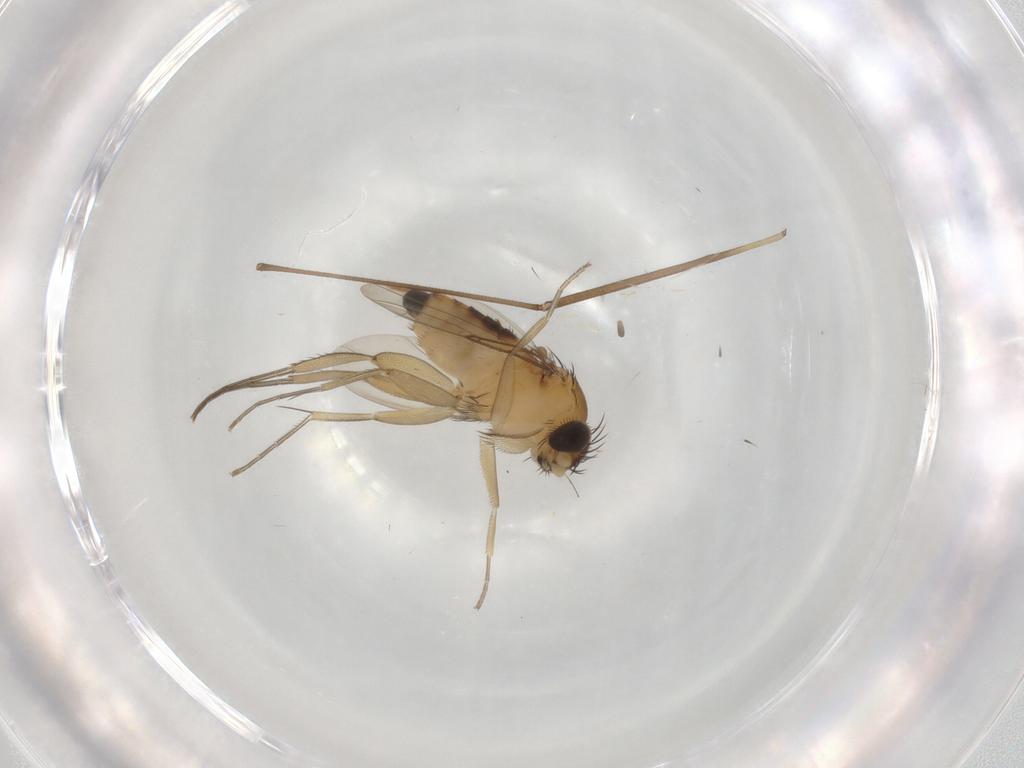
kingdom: Animalia
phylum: Arthropoda
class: Insecta
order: Diptera
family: Phoridae
